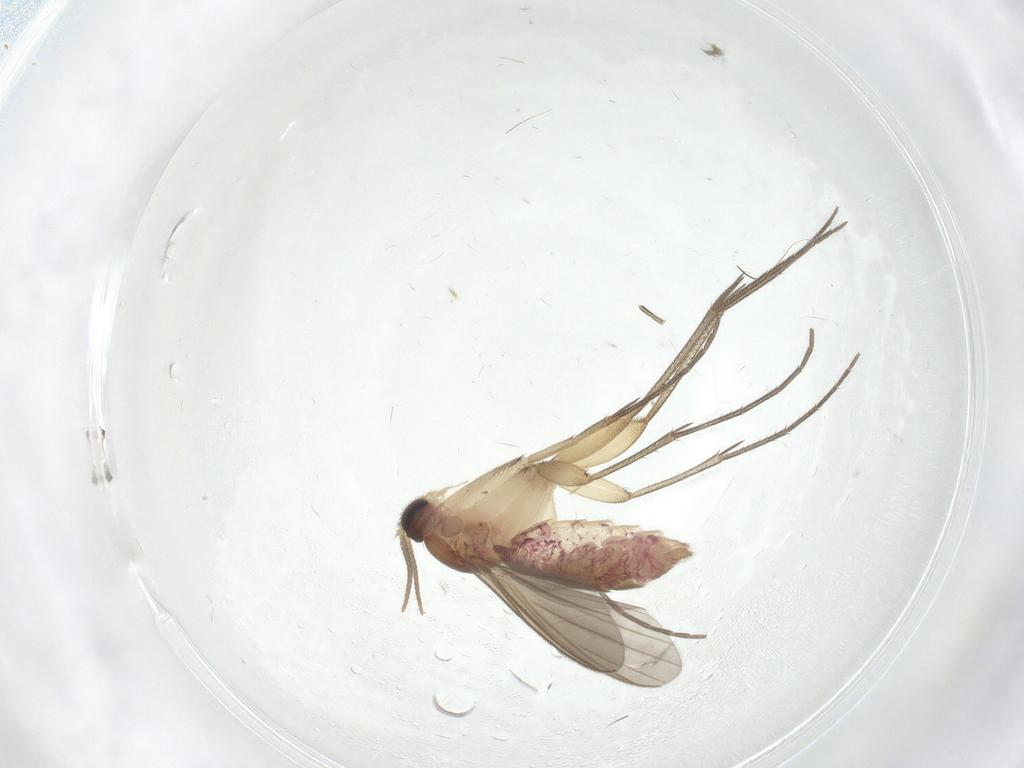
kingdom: Animalia
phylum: Arthropoda
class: Insecta
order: Diptera
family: Mycetophilidae
